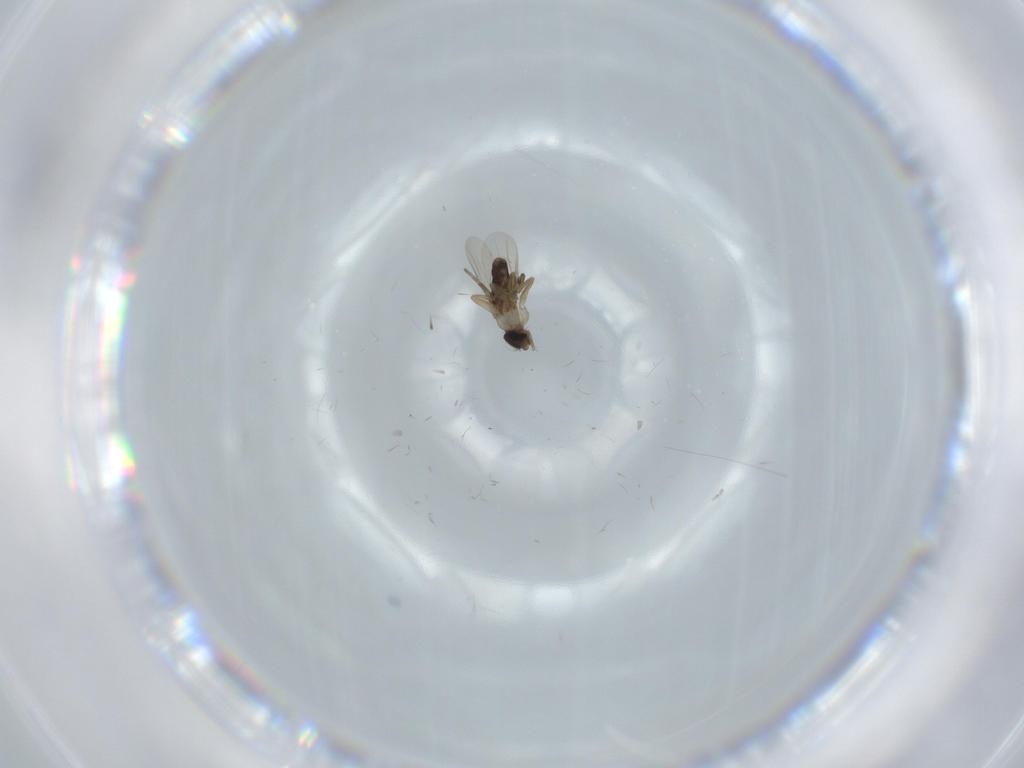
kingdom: Animalia
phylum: Arthropoda
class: Insecta
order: Diptera
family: Phoridae
